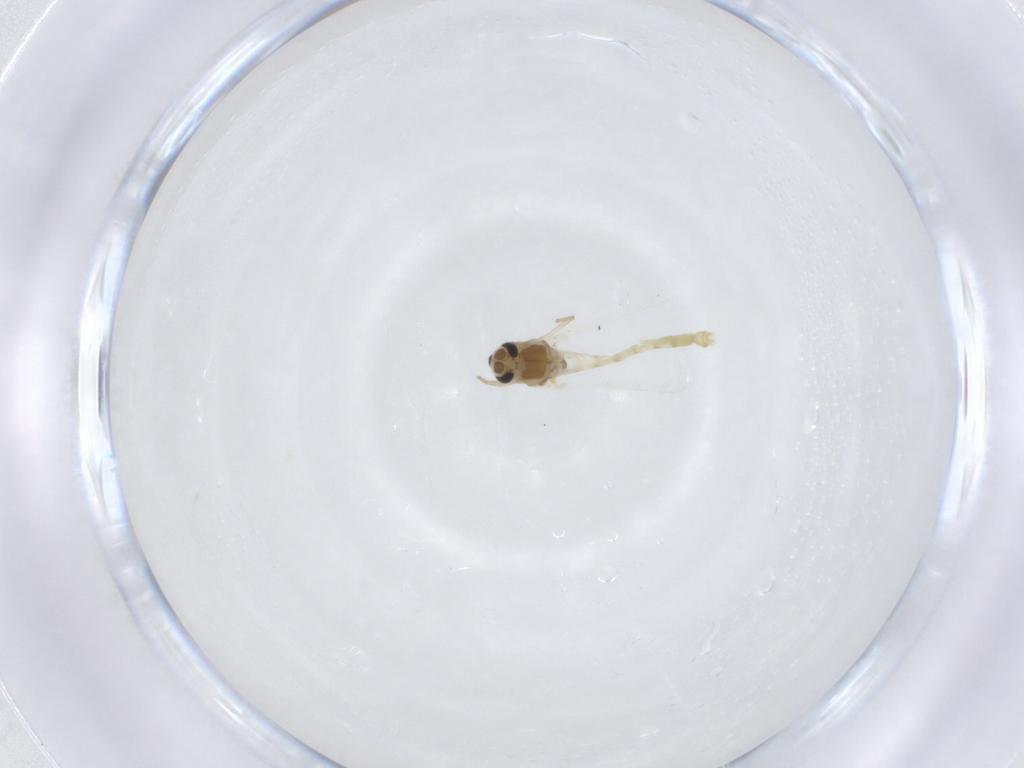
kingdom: Animalia
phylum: Arthropoda
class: Insecta
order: Diptera
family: Chironomidae
